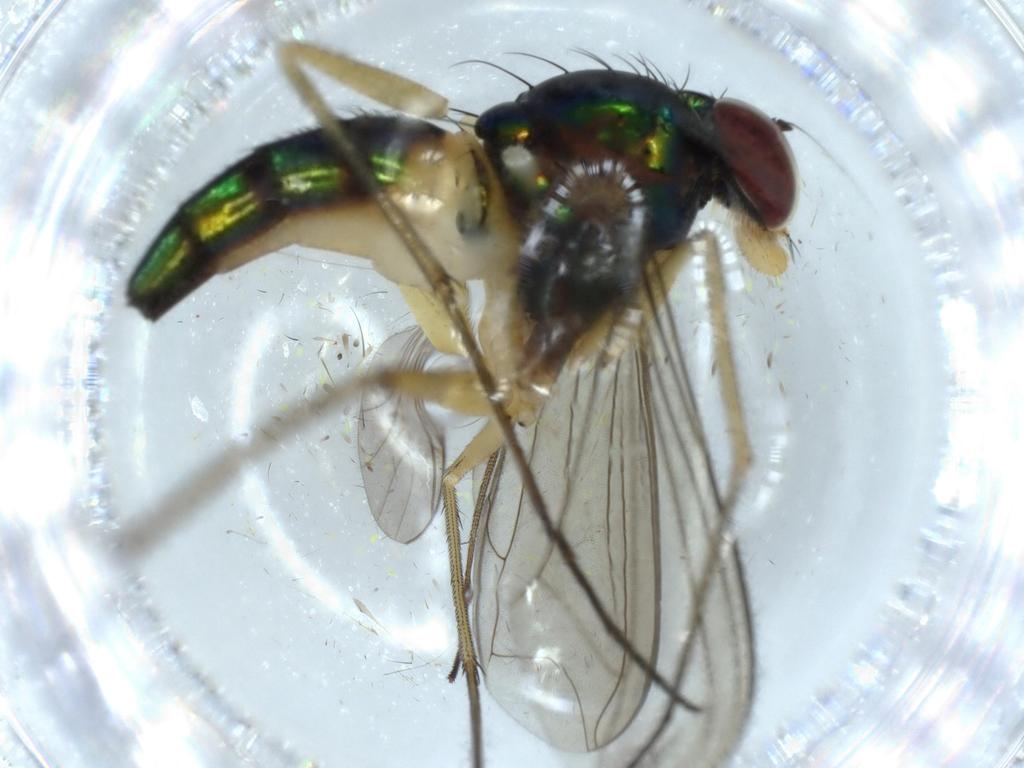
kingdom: Animalia
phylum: Arthropoda
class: Insecta
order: Diptera
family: Dolichopodidae
